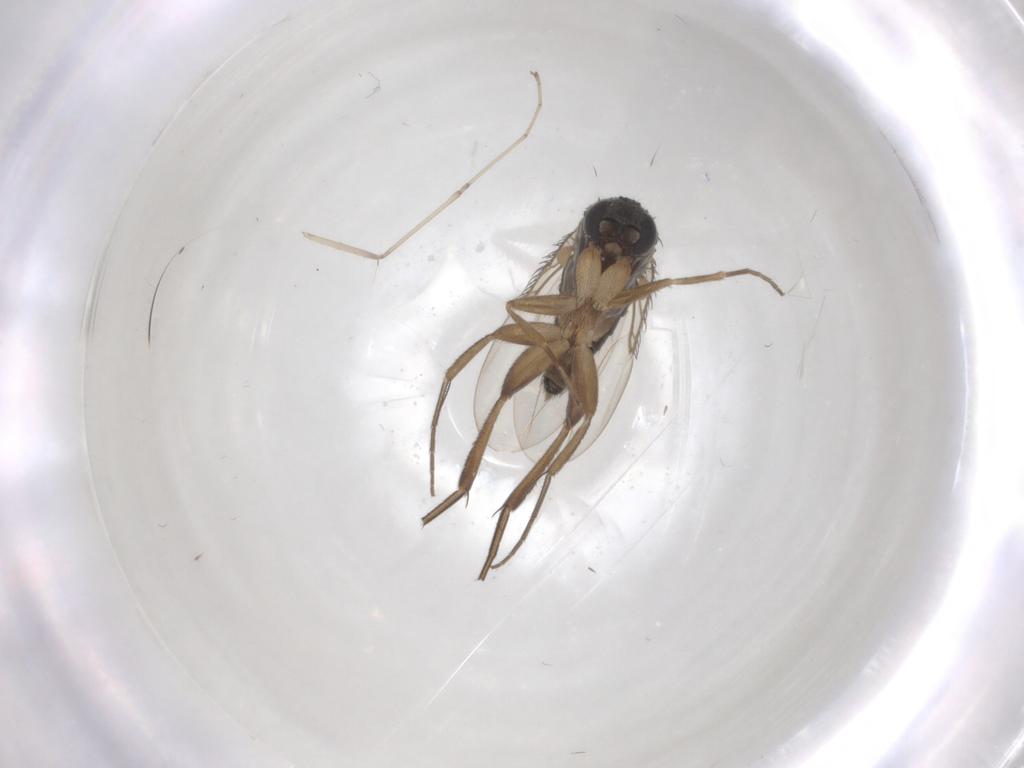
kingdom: Animalia
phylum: Arthropoda
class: Insecta
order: Diptera
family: Phoridae
